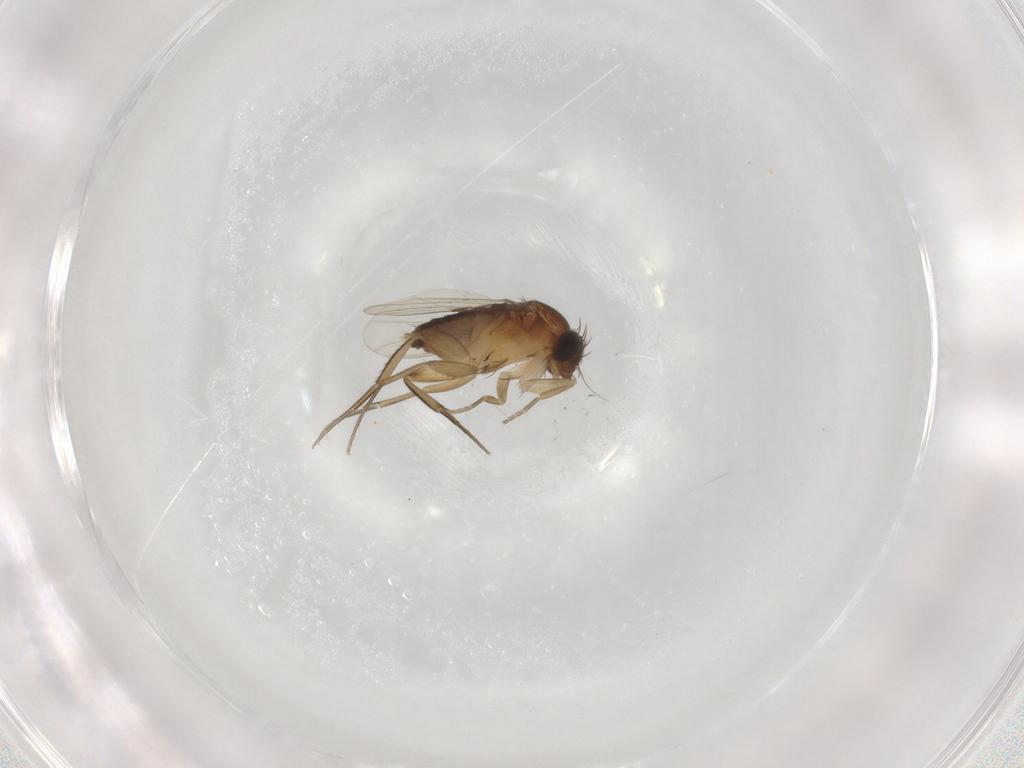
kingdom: Animalia
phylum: Arthropoda
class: Insecta
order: Diptera
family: Phoridae
